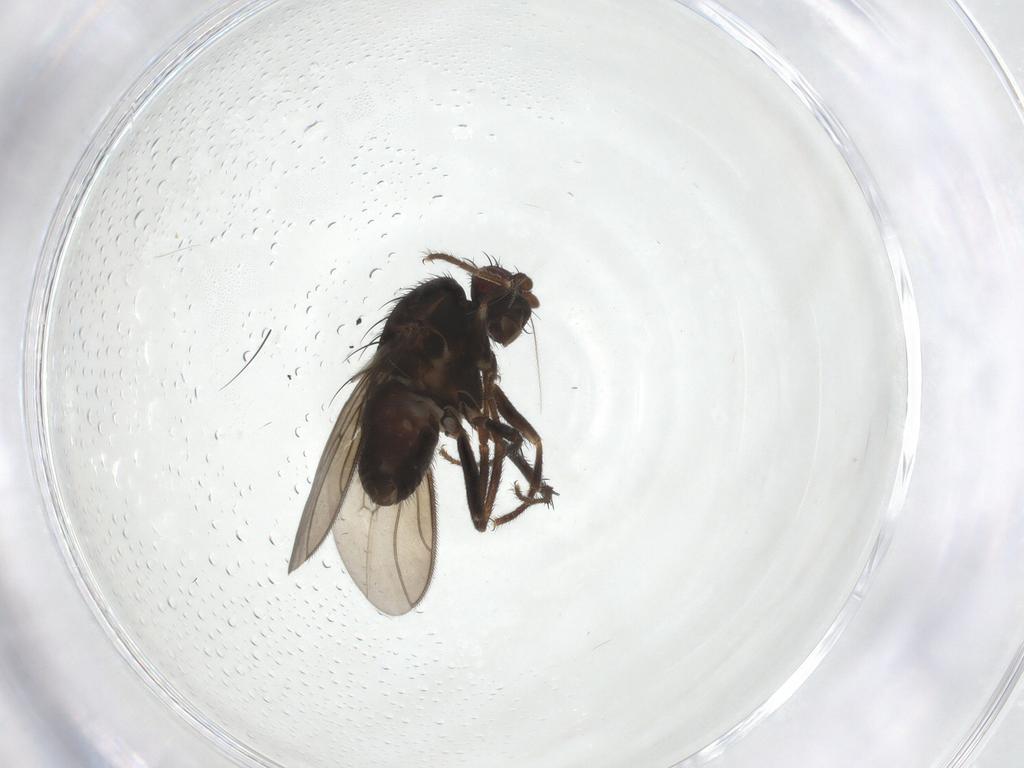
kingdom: Animalia
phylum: Arthropoda
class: Insecta
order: Diptera
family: Sphaeroceridae
